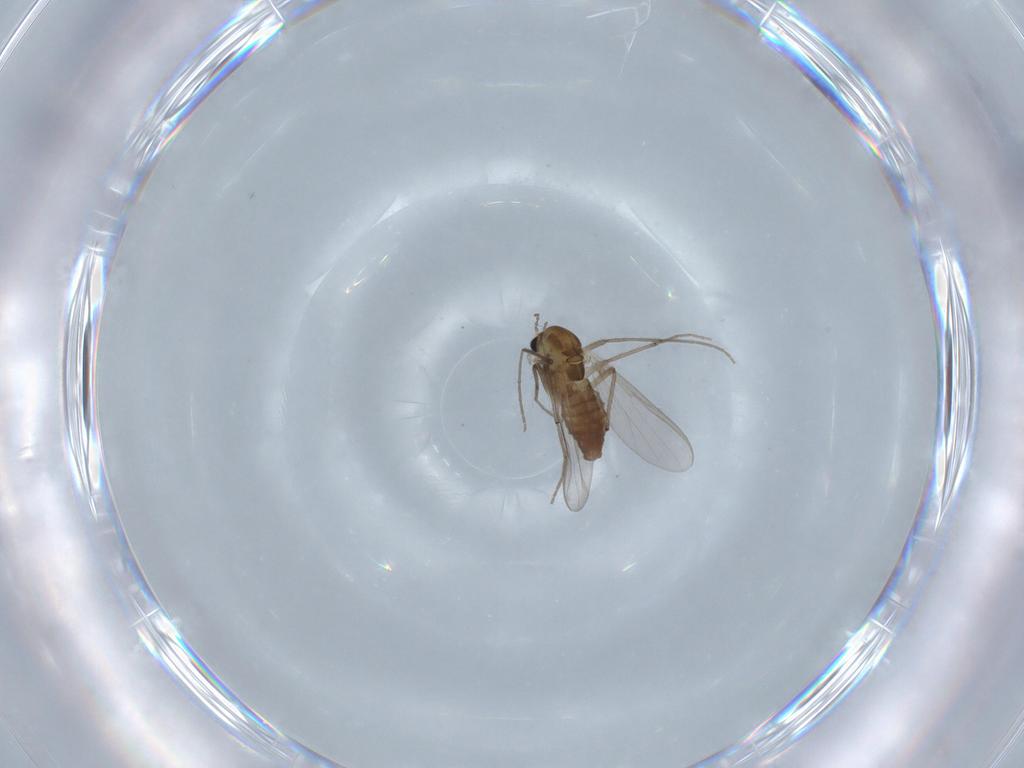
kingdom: Animalia
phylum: Arthropoda
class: Insecta
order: Diptera
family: Chironomidae
